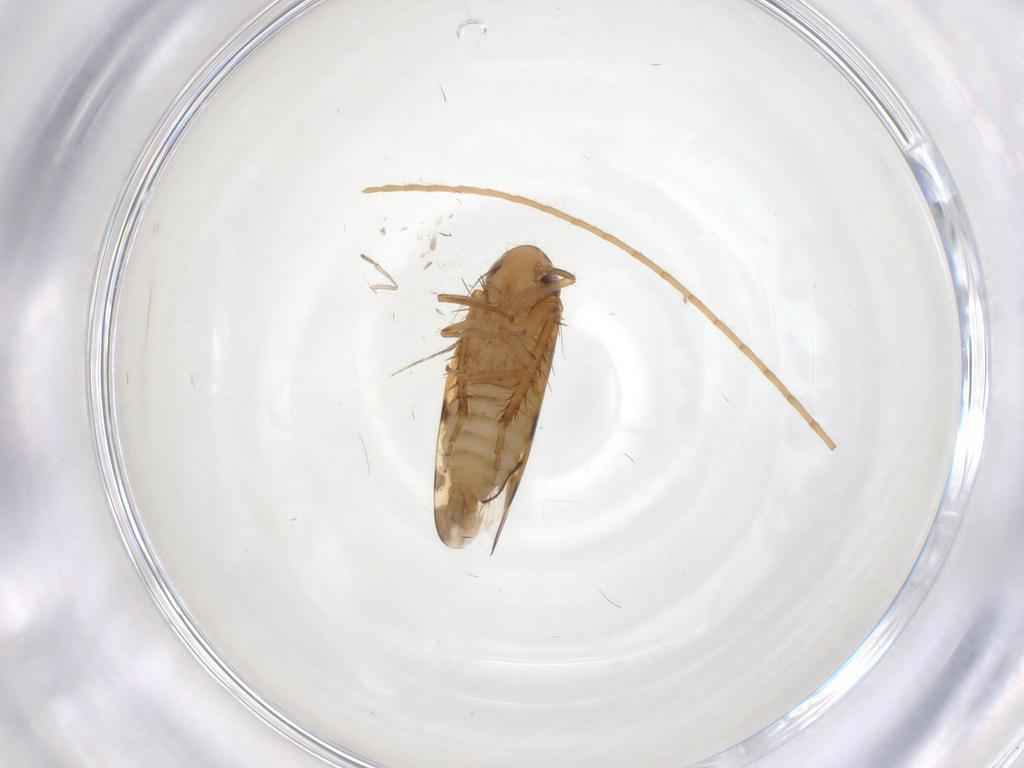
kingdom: Animalia
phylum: Arthropoda
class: Insecta
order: Hemiptera
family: Cicadellidae
